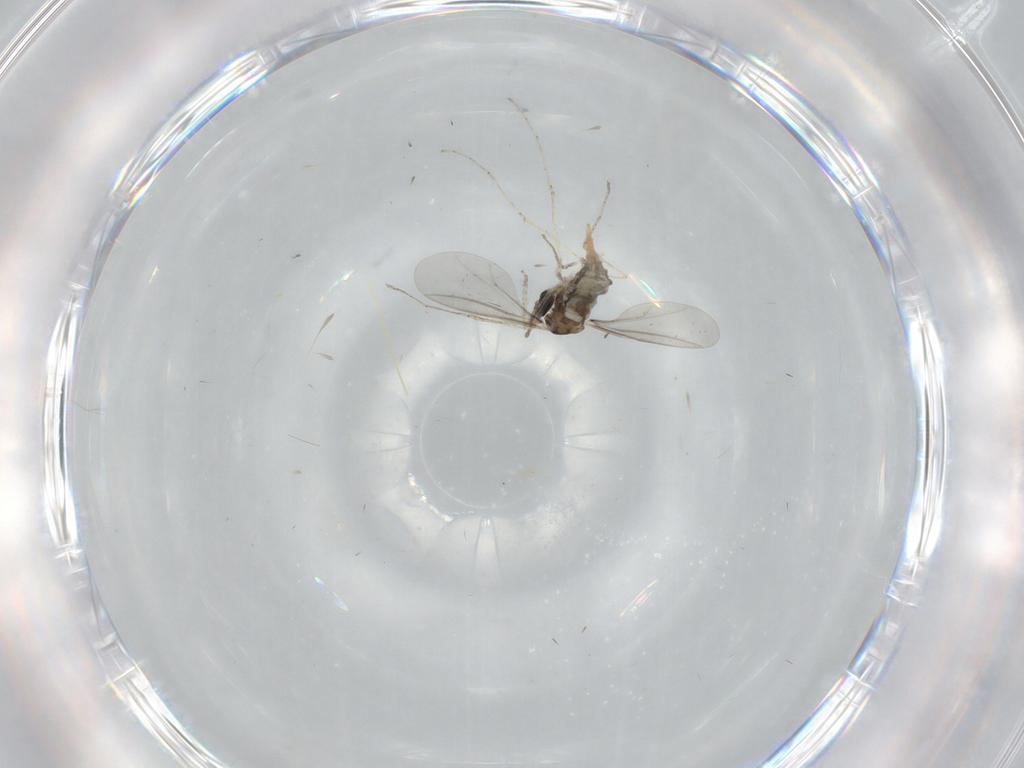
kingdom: Animalia
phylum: Arthropoda
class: Insecta
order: Diptera
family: Cecidomyiidae
